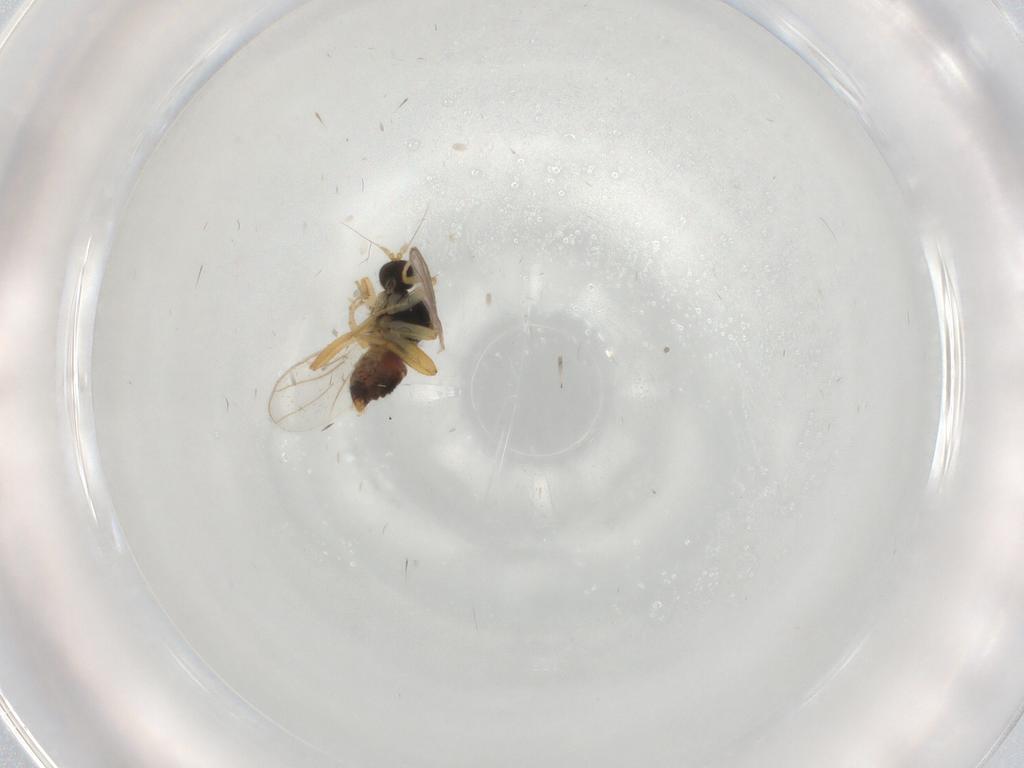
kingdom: Animalia
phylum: Arthropoda
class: Insecta
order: Diptera
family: Hybotidae
